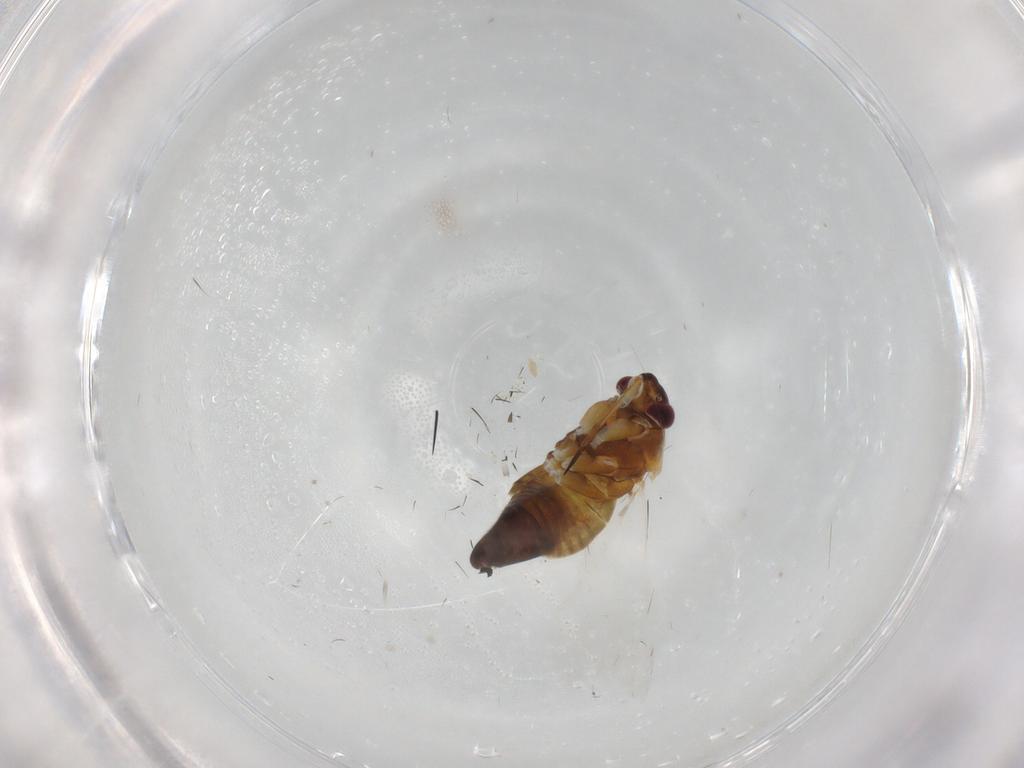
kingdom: Animalia
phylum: Arthropoda
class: Insecta
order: Hemiptera
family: Miridae
